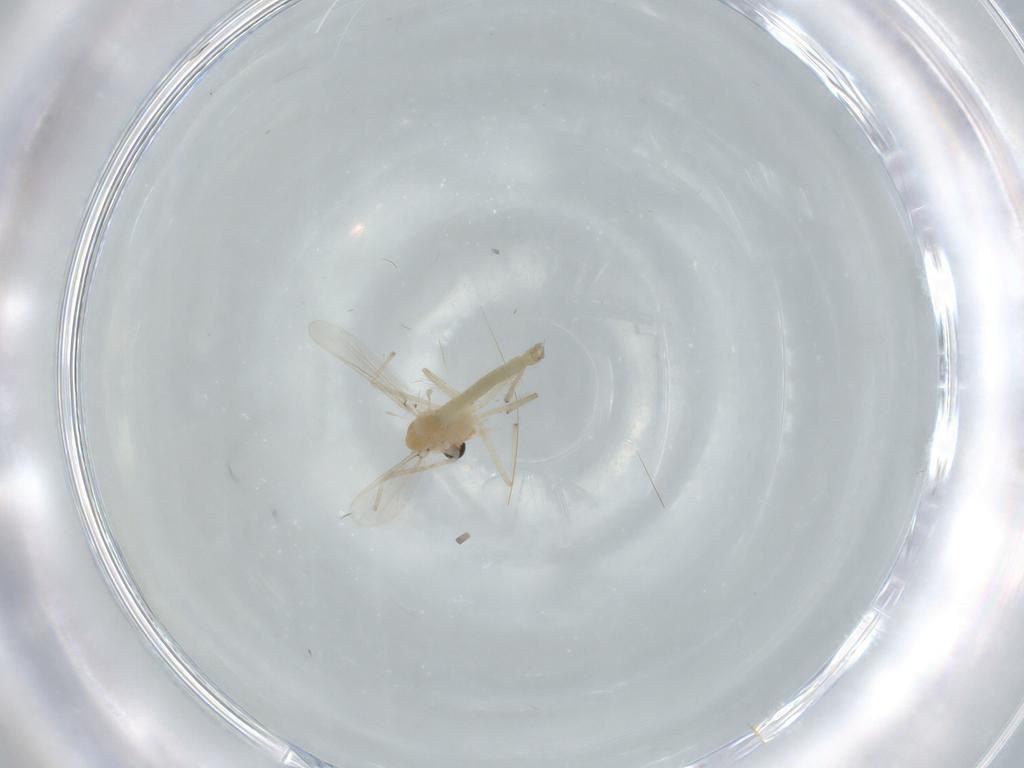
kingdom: Animalia
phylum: Arthropoda
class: Insecta
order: Diptera
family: Chironomidae
